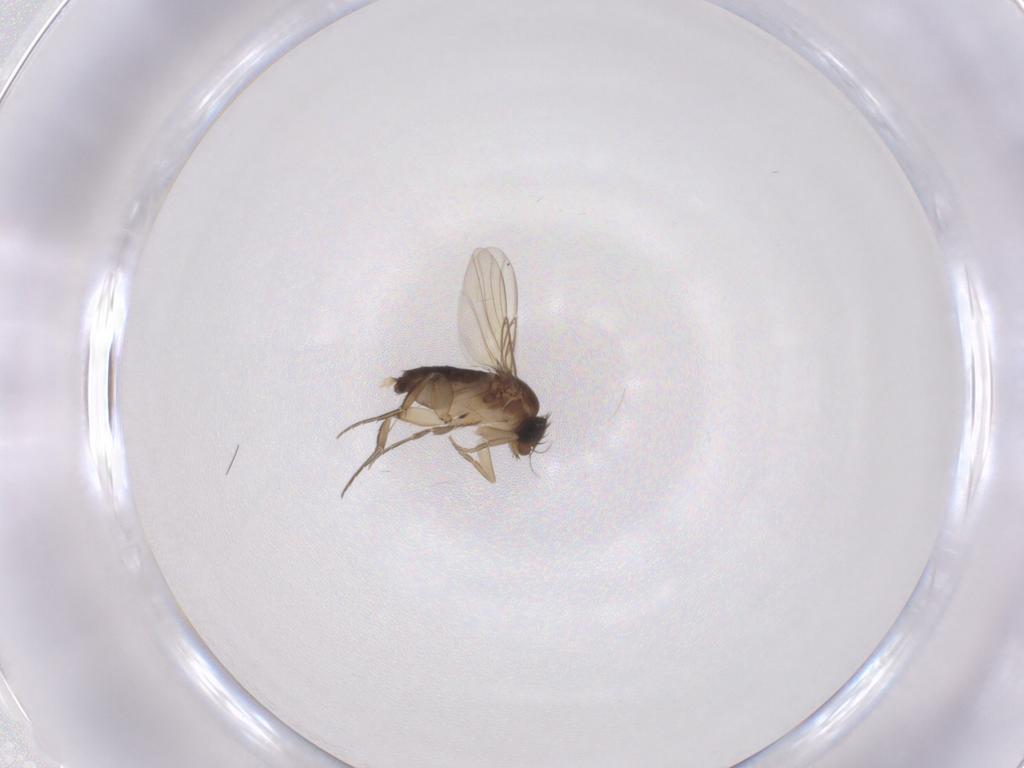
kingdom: Animalia
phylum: Arthropoda
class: Insecta
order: Diptera
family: Phoridae
